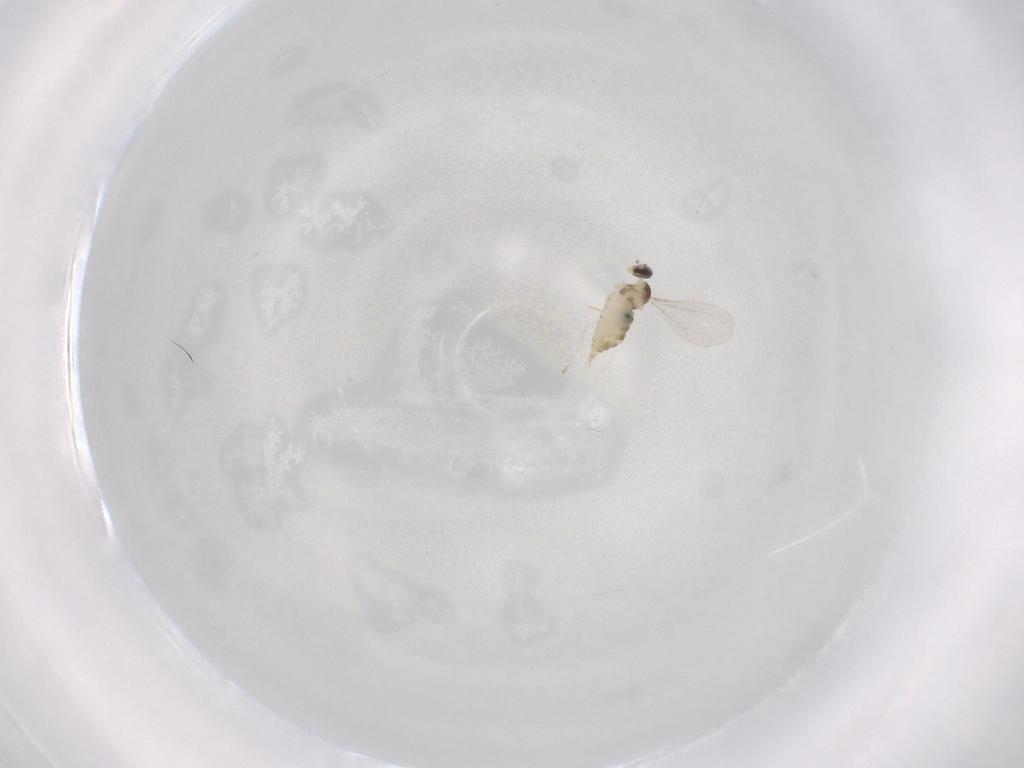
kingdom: Animalia
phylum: Arthropoda
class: Insecta
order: Diptera
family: Cecidomyiidae
